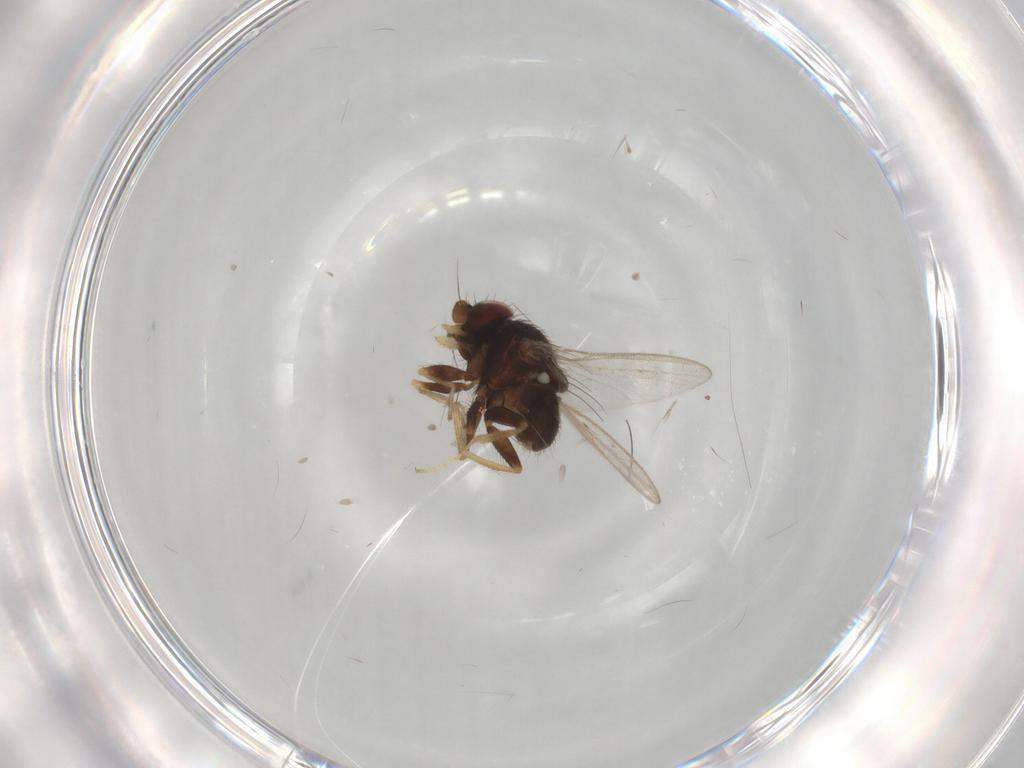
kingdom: Animalia
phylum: Arthropoda
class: Insecta
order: Diptera
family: Milichiidae
